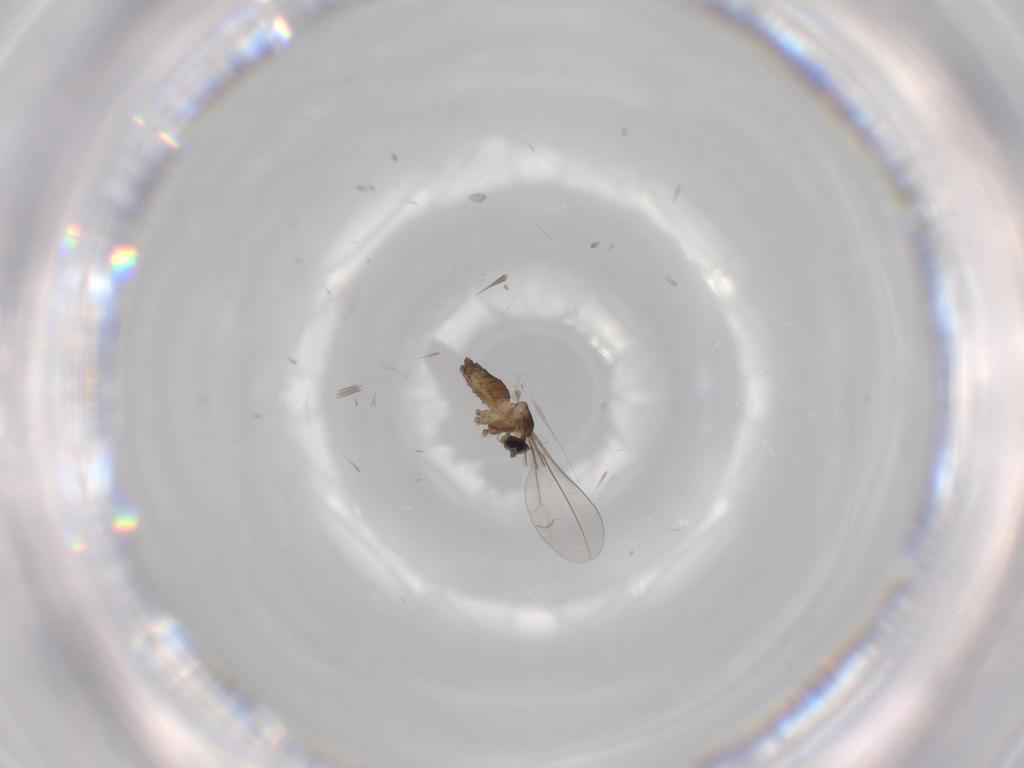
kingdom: Animalia
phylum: Arthropoda
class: Insecta
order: Diptera
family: Cecidomyiidae
